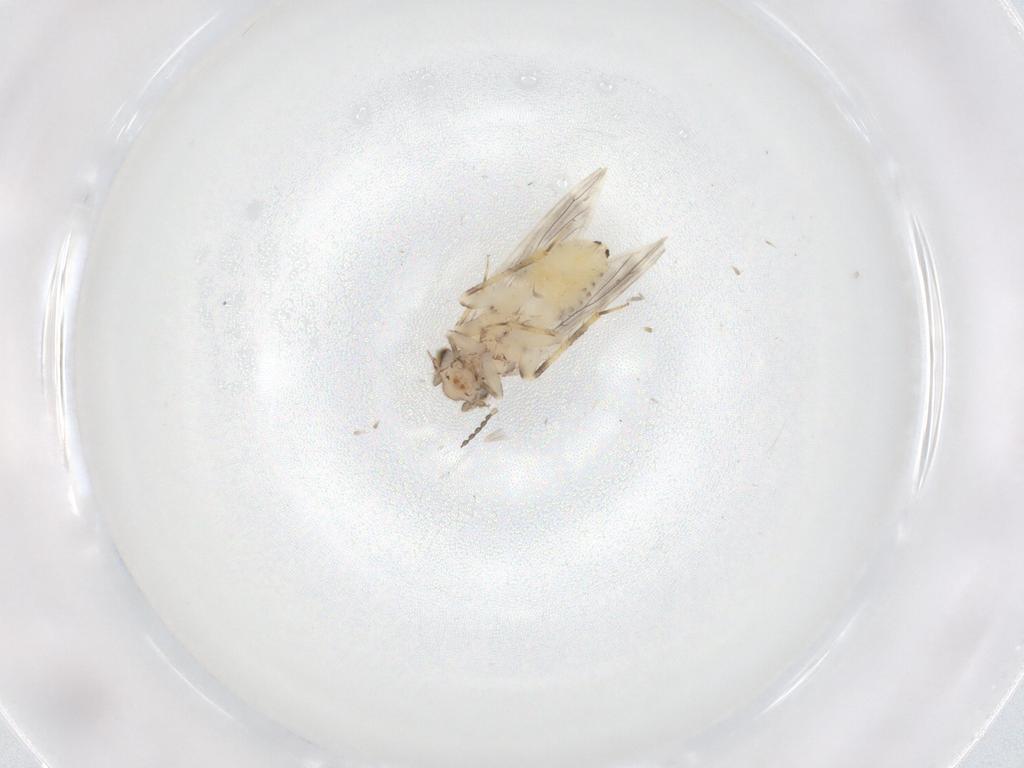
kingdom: Animalia
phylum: Arthropoda
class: Insecta
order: Psocodea
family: Lepidopsocidae
